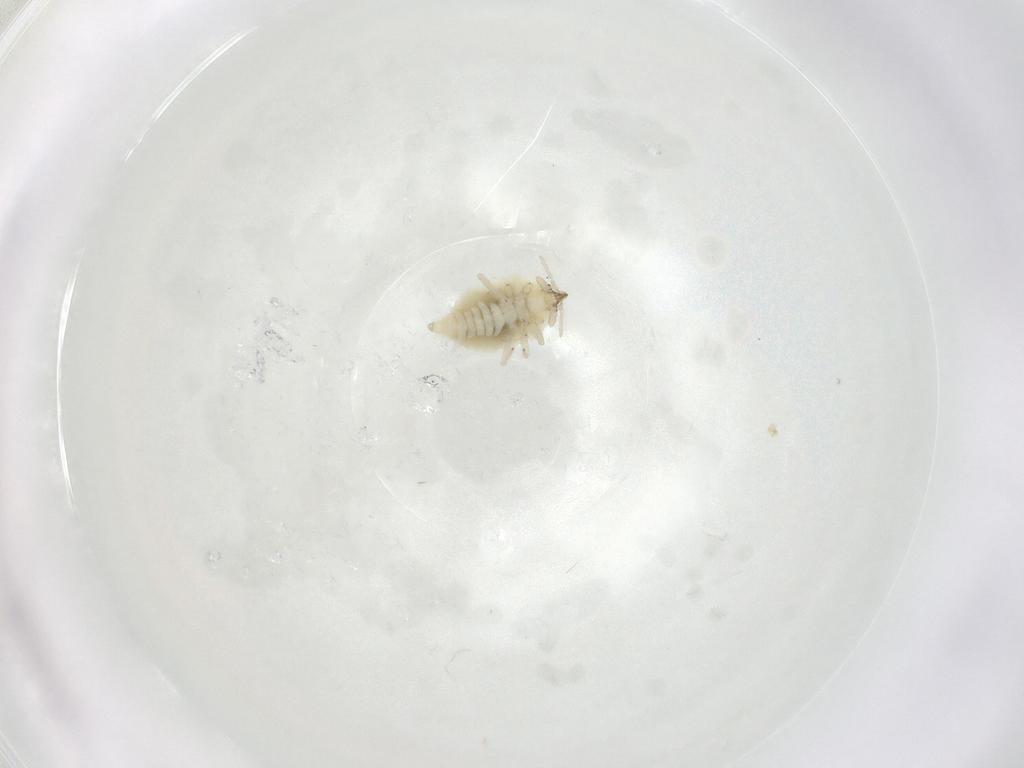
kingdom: Animalia
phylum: Arthropoda
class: Insecta
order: Neuroptera
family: Coniopterygidae
